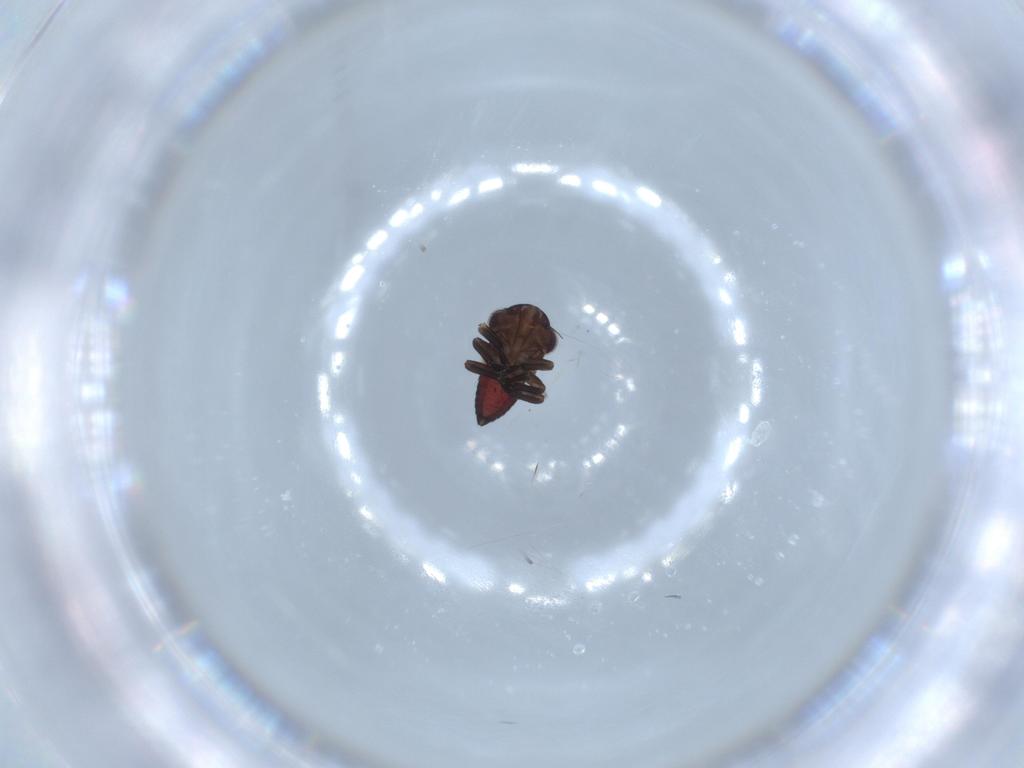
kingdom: Animalia
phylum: Arthropoda
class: Insecta
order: Hemiptera
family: Cicadellidae
